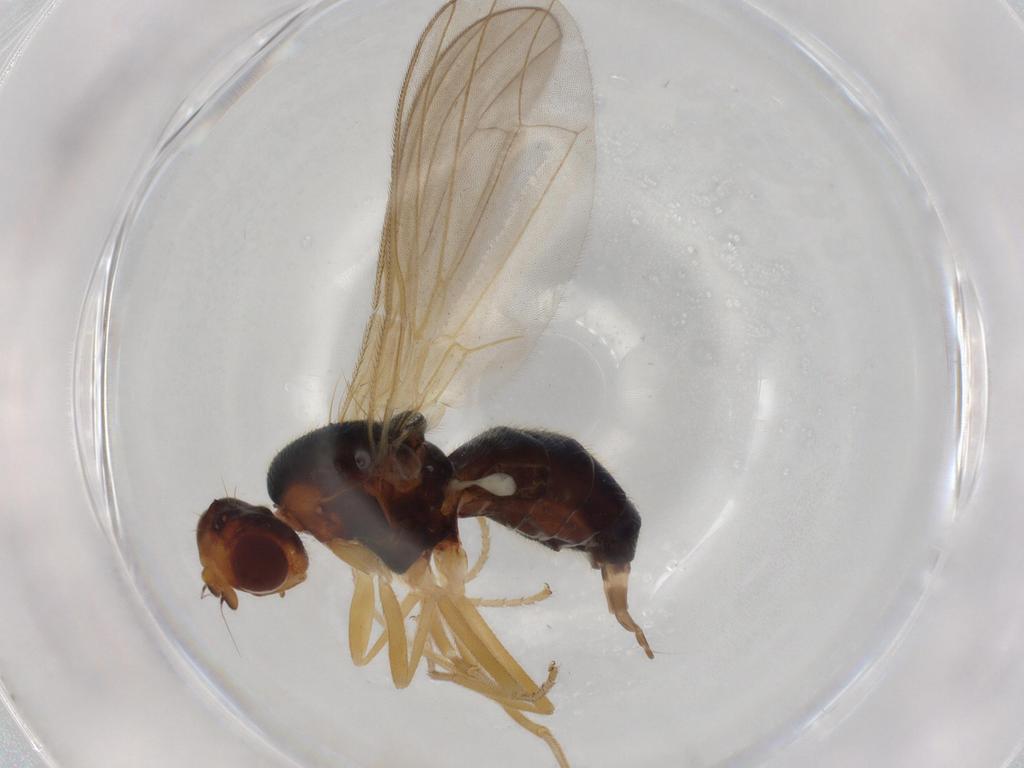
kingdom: Animalia
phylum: Arthropoda
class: Insecta
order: Diptera
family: Psilidae
